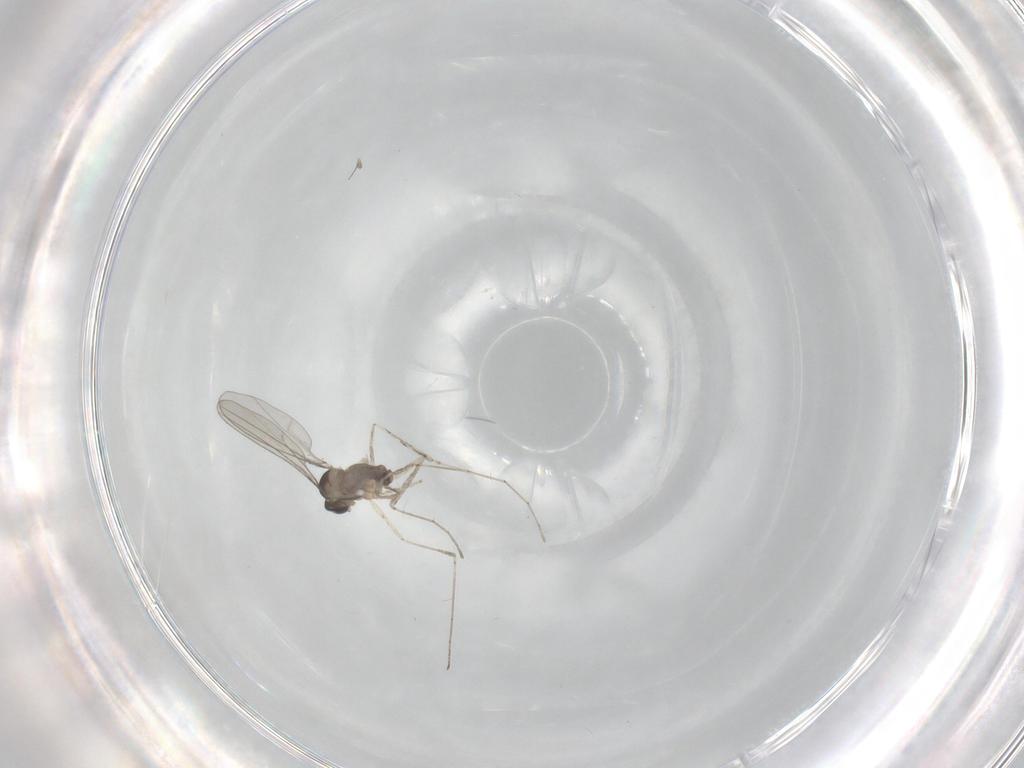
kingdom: Animalia
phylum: Arthropoda
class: Insecta
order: Diptera
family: Cecidomyiidae
